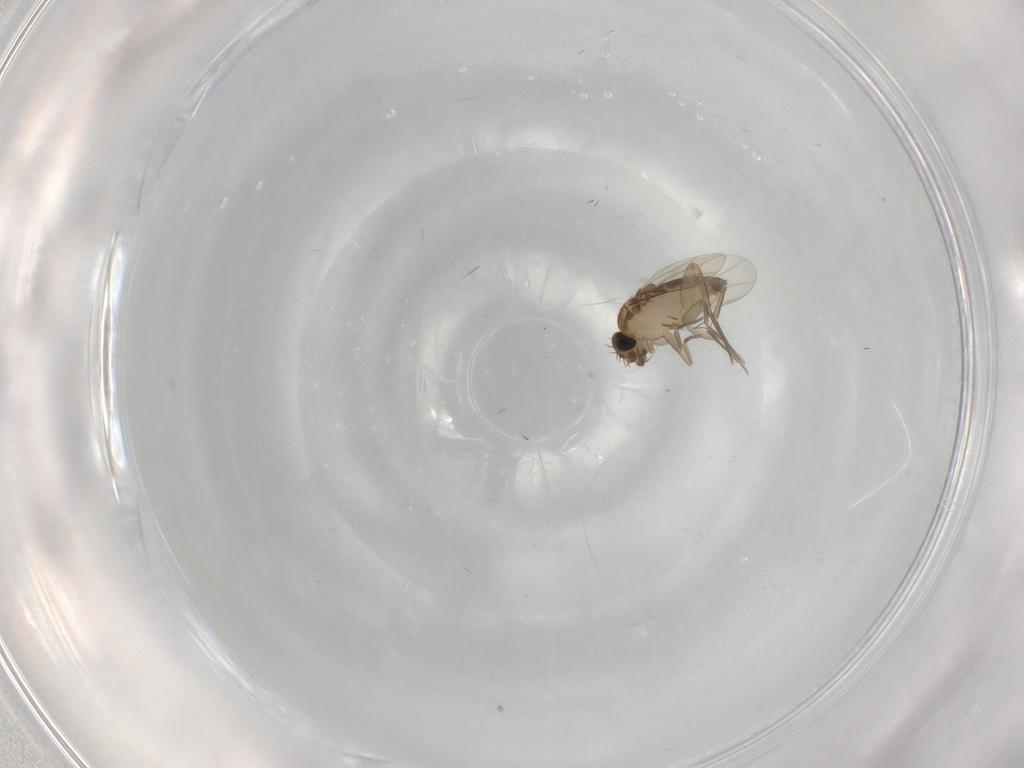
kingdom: Animalia
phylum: Arthropoda
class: Insecta
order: Diptera
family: Phoridae
